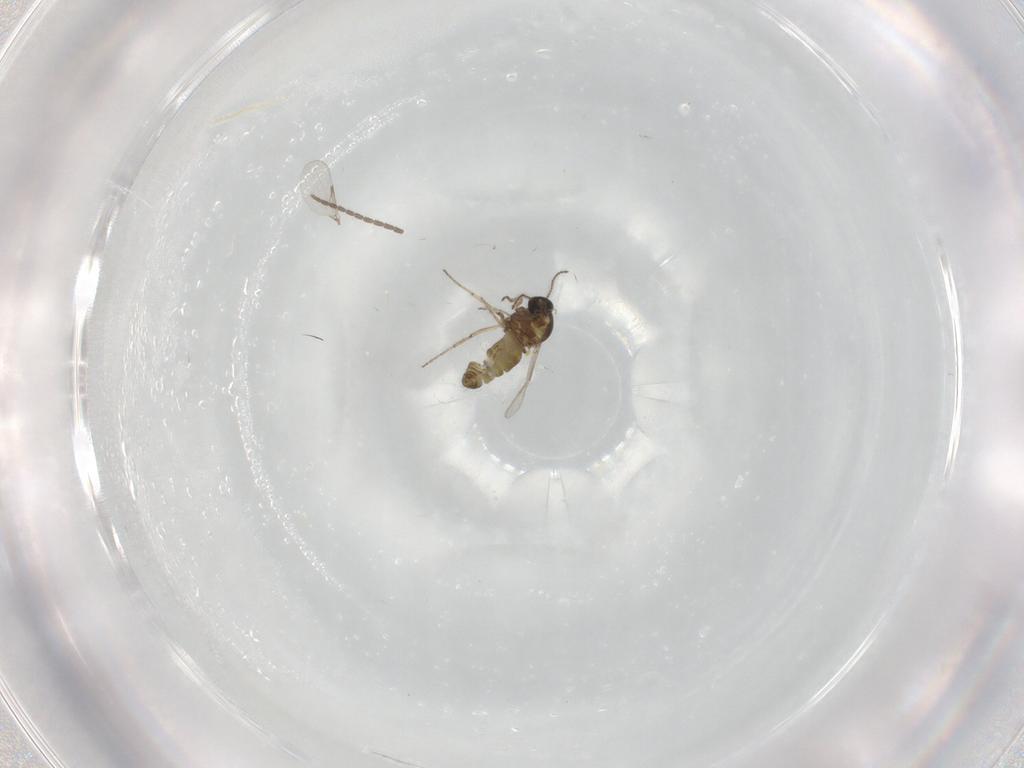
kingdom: Animalia
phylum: Arthropoda
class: Insecta
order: Diptera
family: Ceratopogonidae
